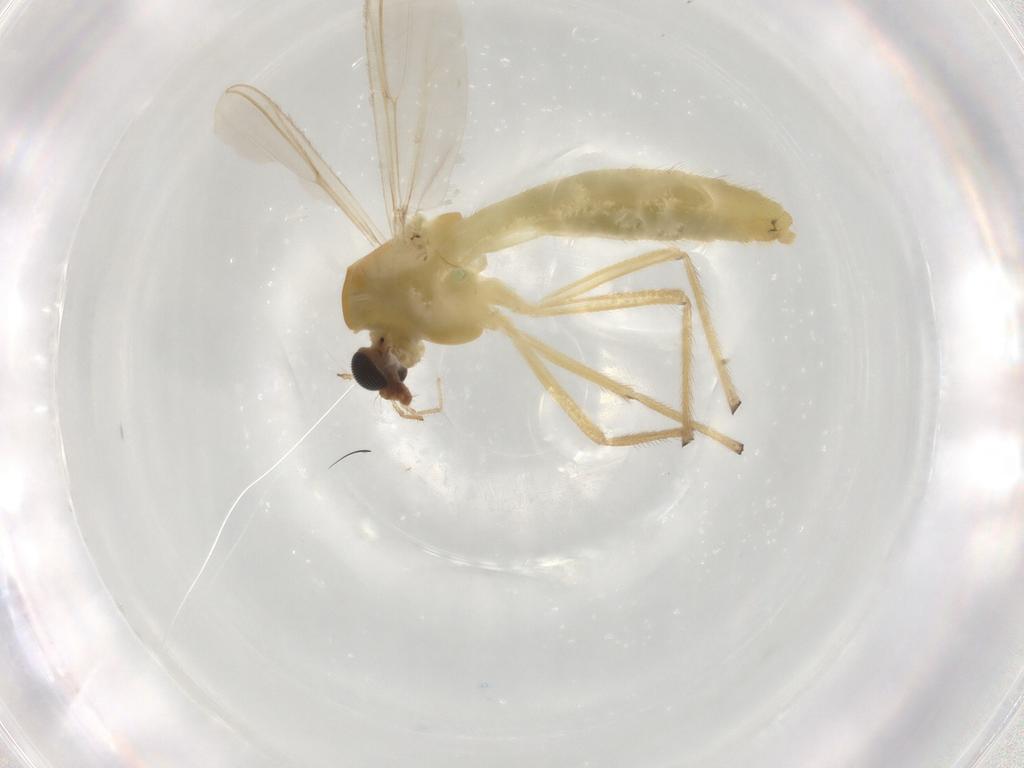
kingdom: Animalia
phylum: Arthropoda
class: Insecta
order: Diptera
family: Chironomidae
